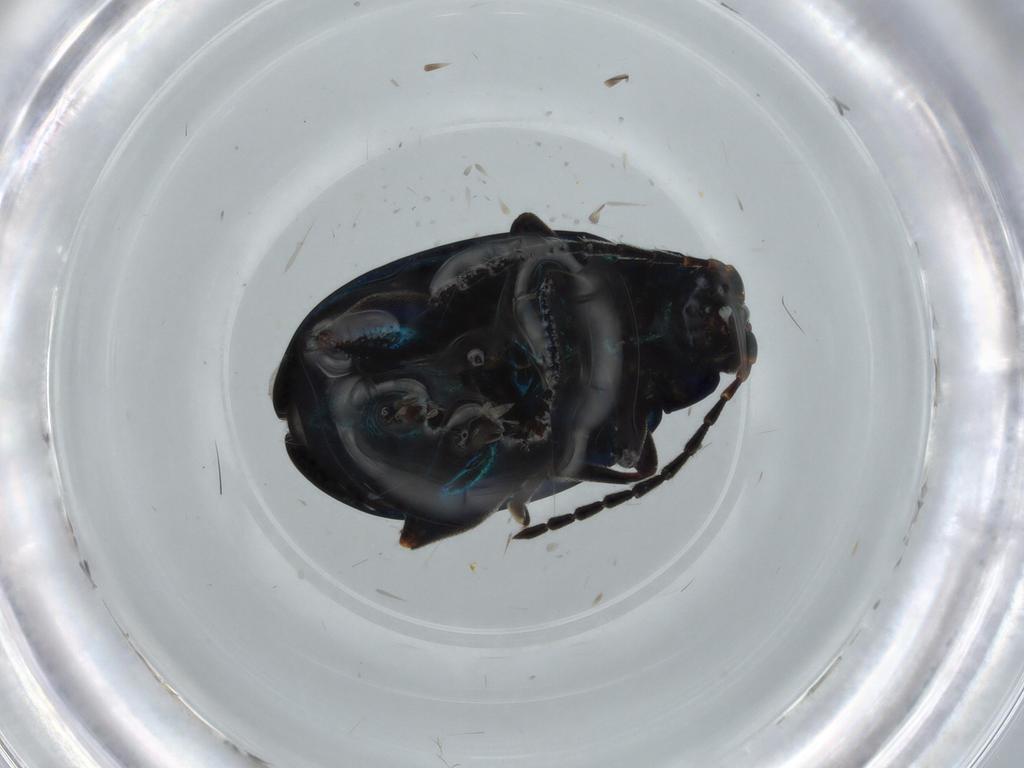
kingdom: Animalia
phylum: Arthropoda
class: Insecta
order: Coleoptera
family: Chrysomelidae
